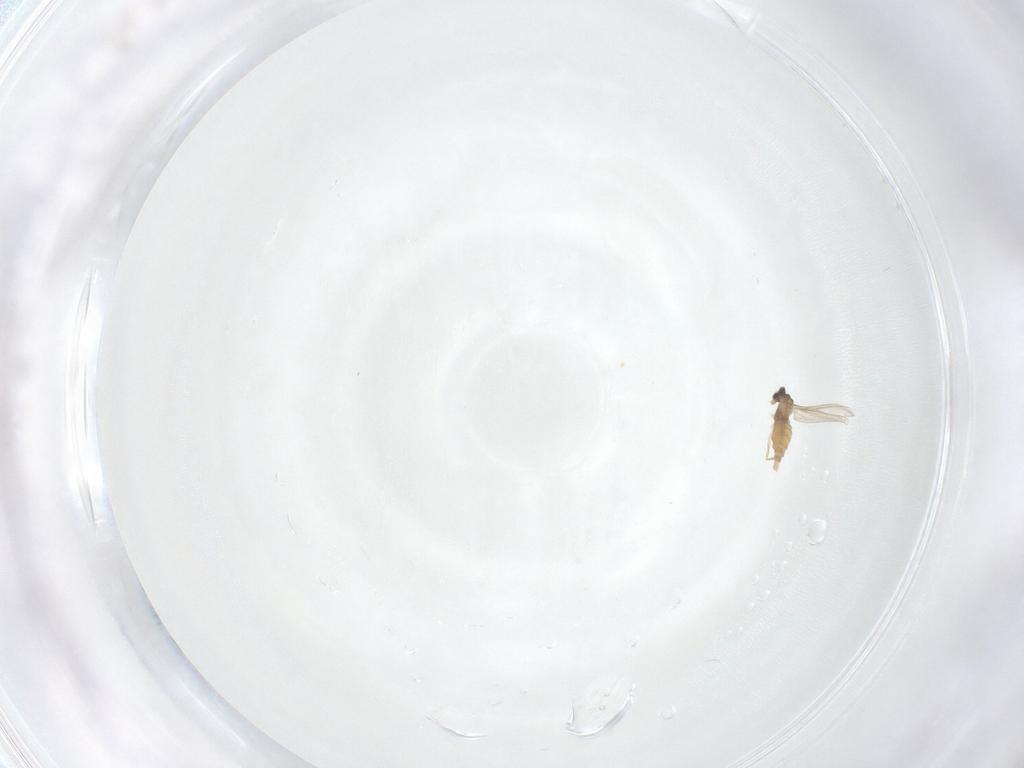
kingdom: Animalia
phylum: Arthropoda
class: Insecta
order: Diptera
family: Cecidomyiidae
